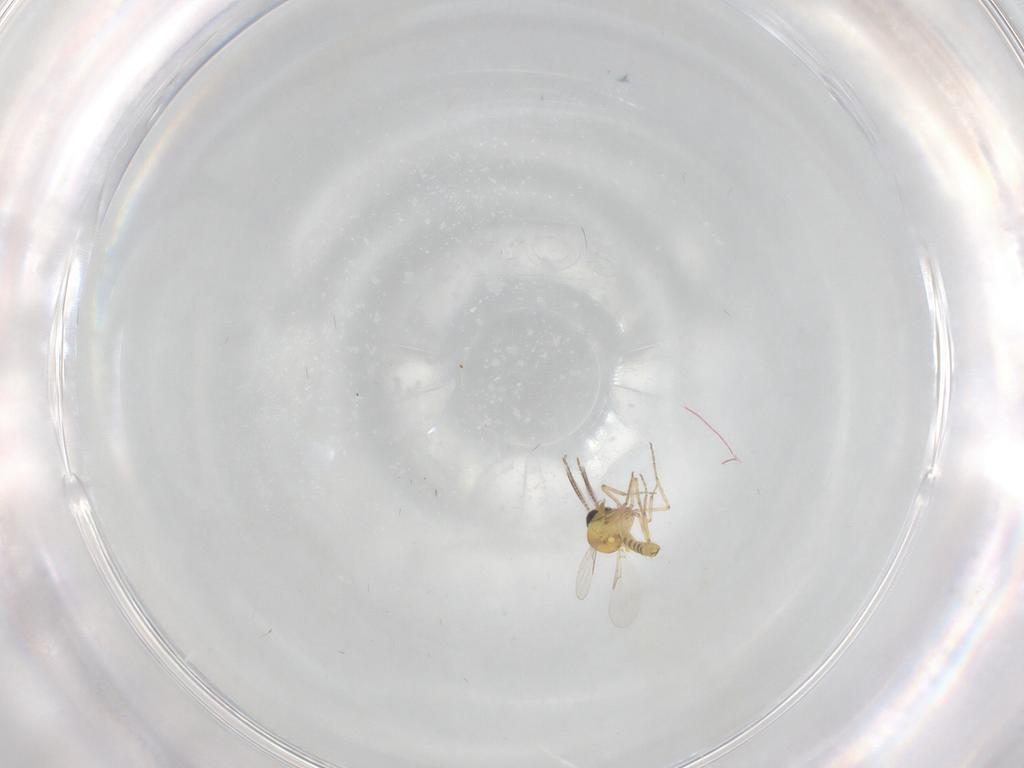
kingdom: Animalia
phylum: Arthropoda
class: Insecta
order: Diptera
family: Ceratopogonidae
